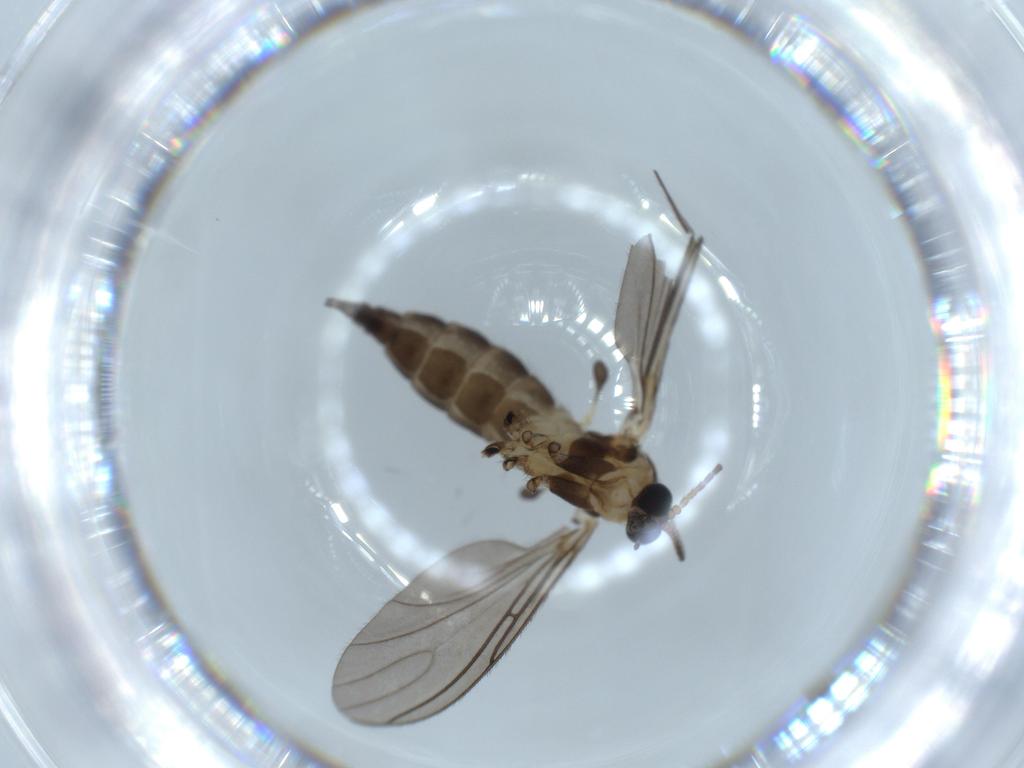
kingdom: Animalia
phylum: Arthropoda
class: Insecta
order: Diptera
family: Sciaridae
